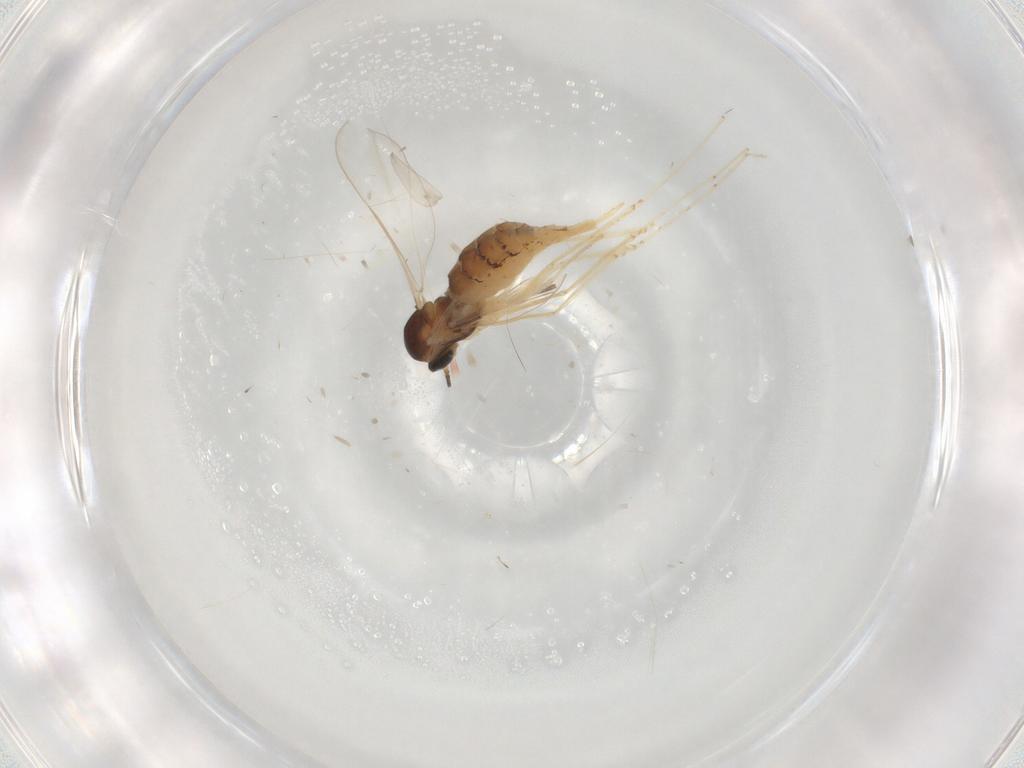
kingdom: Animalia
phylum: Arthropoda
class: Insecta
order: Diptera
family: Cecidomyiidae
